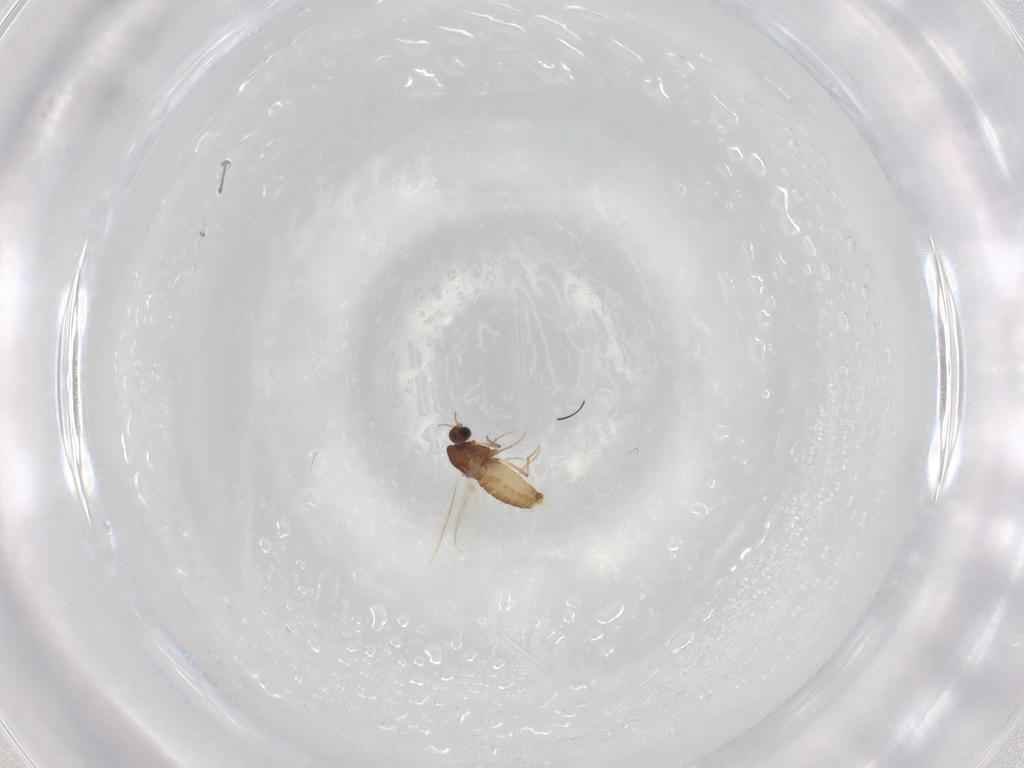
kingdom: Animalia
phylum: Arthropoda
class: Insecta
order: Diptera
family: Chironomidae
